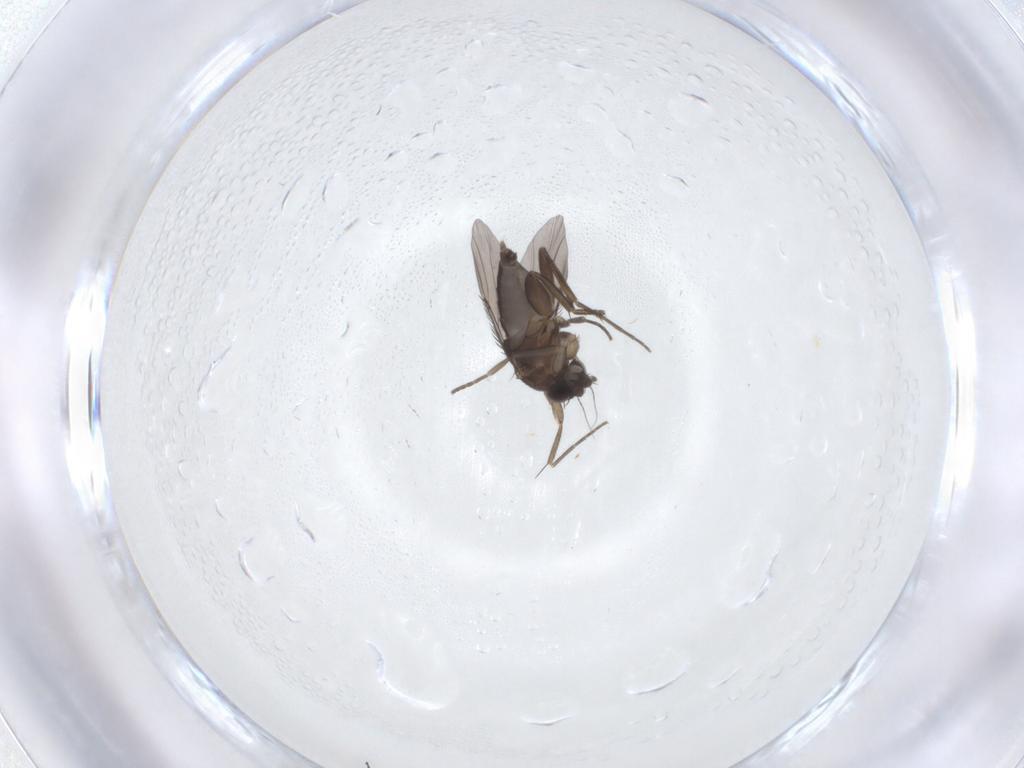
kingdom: Animalia
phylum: Arthropoda
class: Insecta
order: Diptera
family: Phoridae
